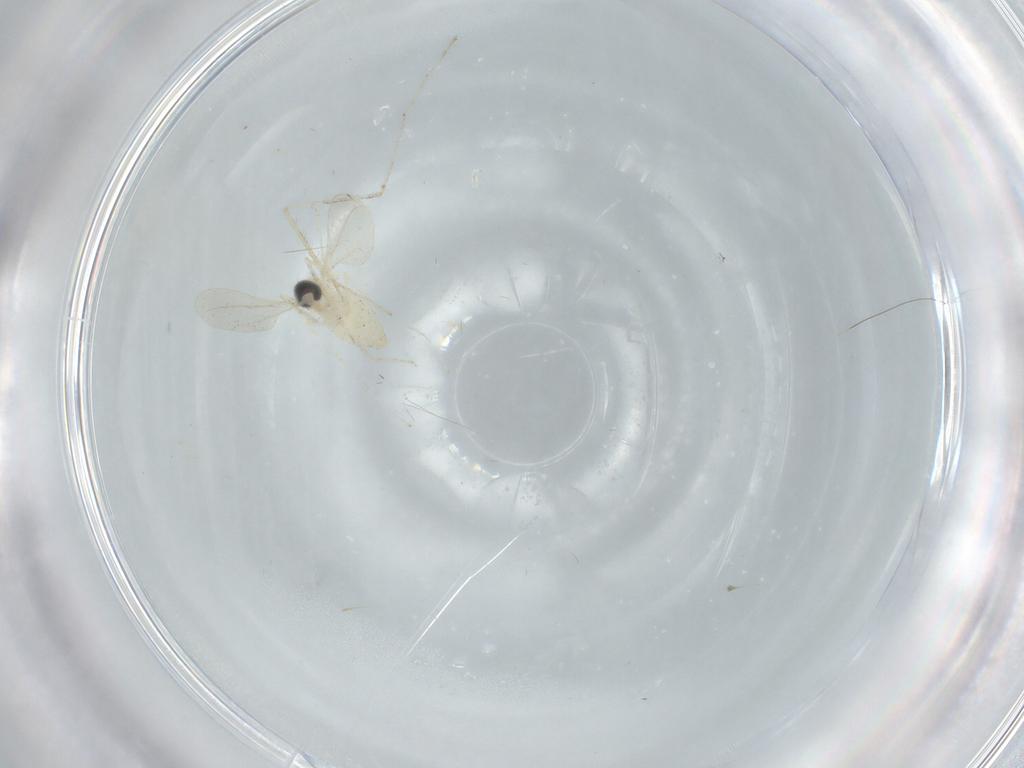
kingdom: Animalia
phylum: Arthropoda
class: Insecta
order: Diptera
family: Cecidomyiidae
